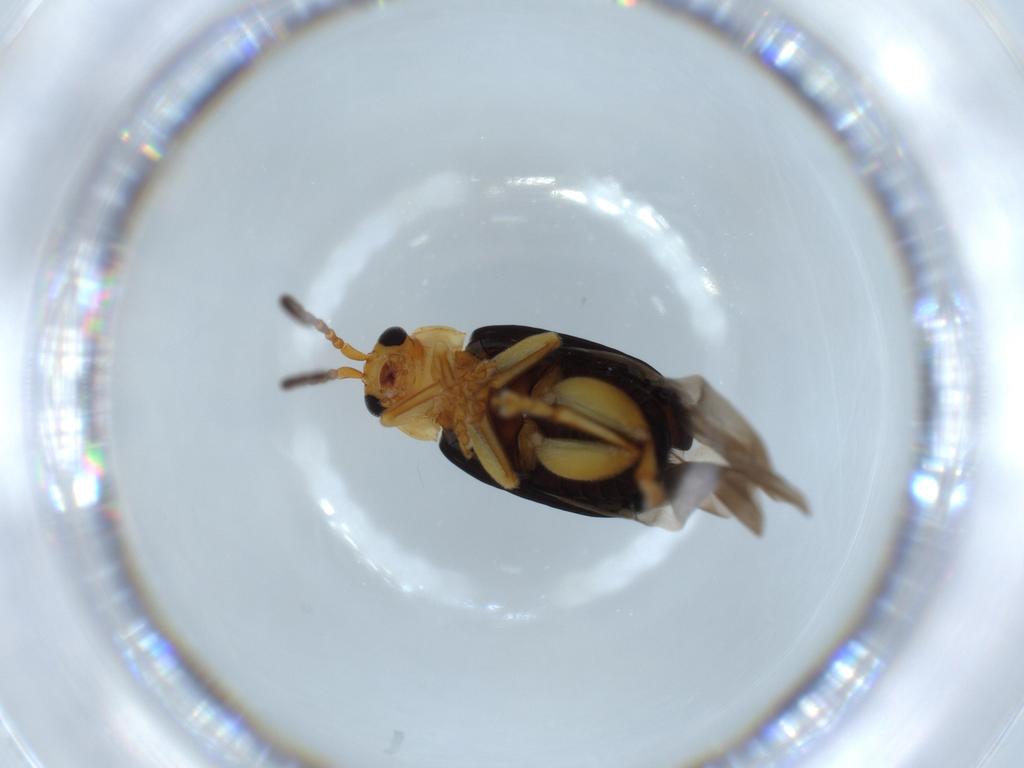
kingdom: Animalia
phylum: Arthropoda
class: Insecta
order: Coleoptera
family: Chrysomelidae
